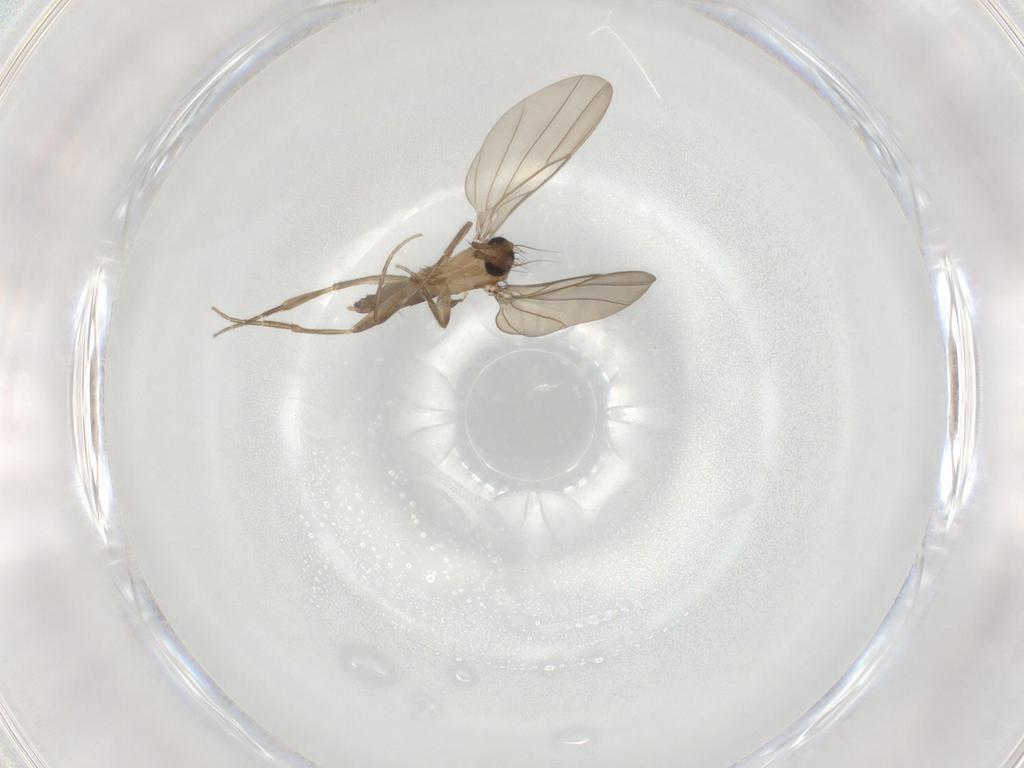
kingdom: Animalia
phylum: Arthropoda
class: Insecta
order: Diptera
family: Phoridae
